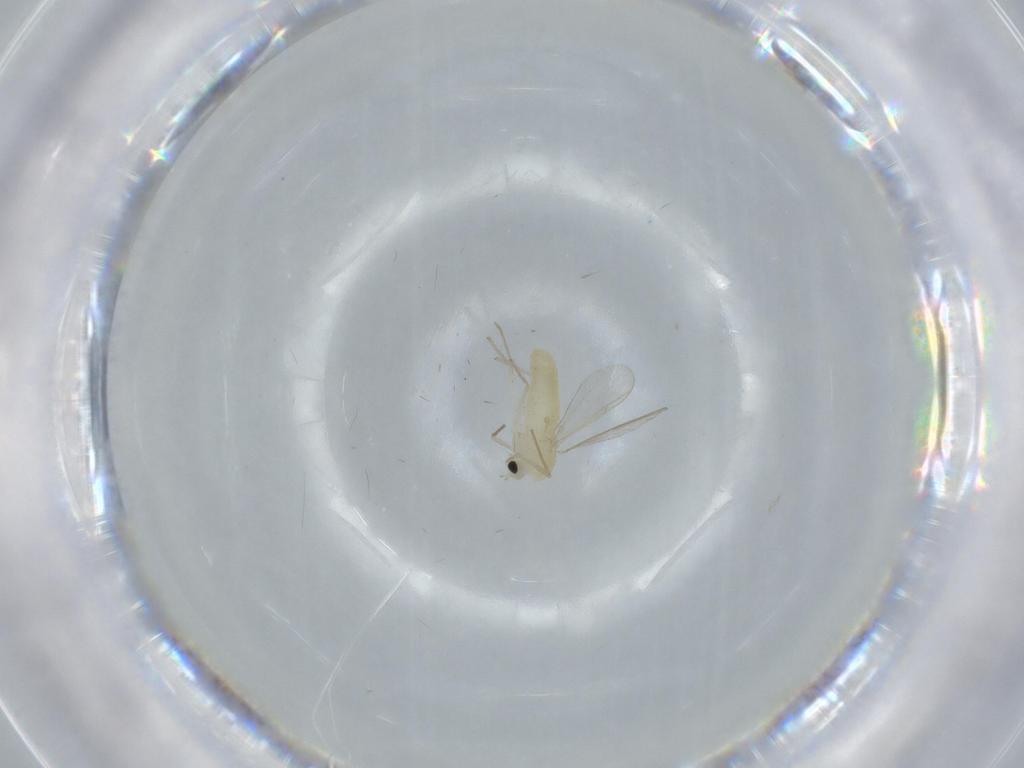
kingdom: Animalia
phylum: Arthropoda
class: Insecta
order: Diptera
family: Chironomidae
